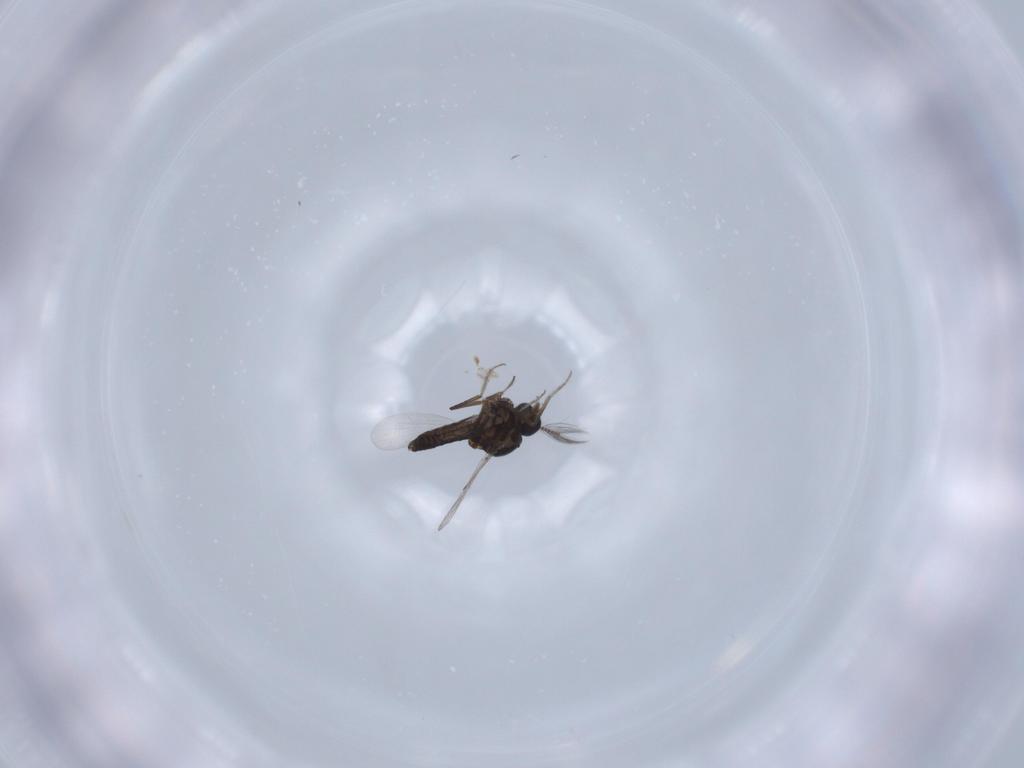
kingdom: Animalia
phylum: Arthropoda
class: Insecta
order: Diptera
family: Ceratopogonidae
